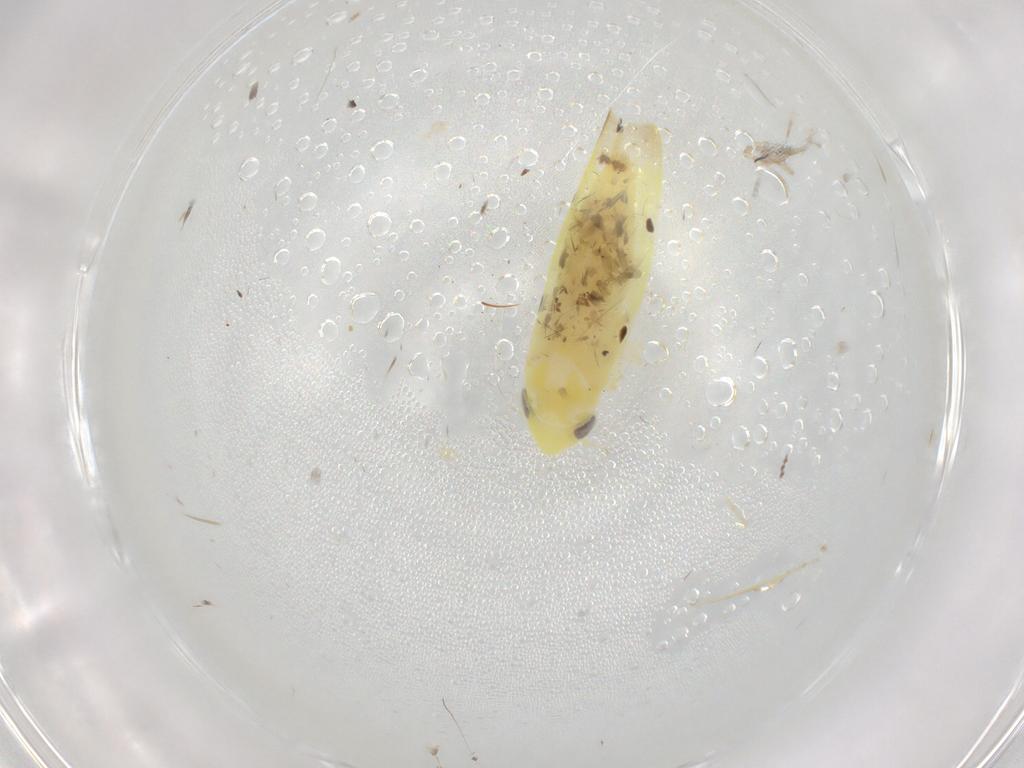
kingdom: Animalia
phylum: Arthropoda
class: Insecta
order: Hemiptera
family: Cicadellidae
